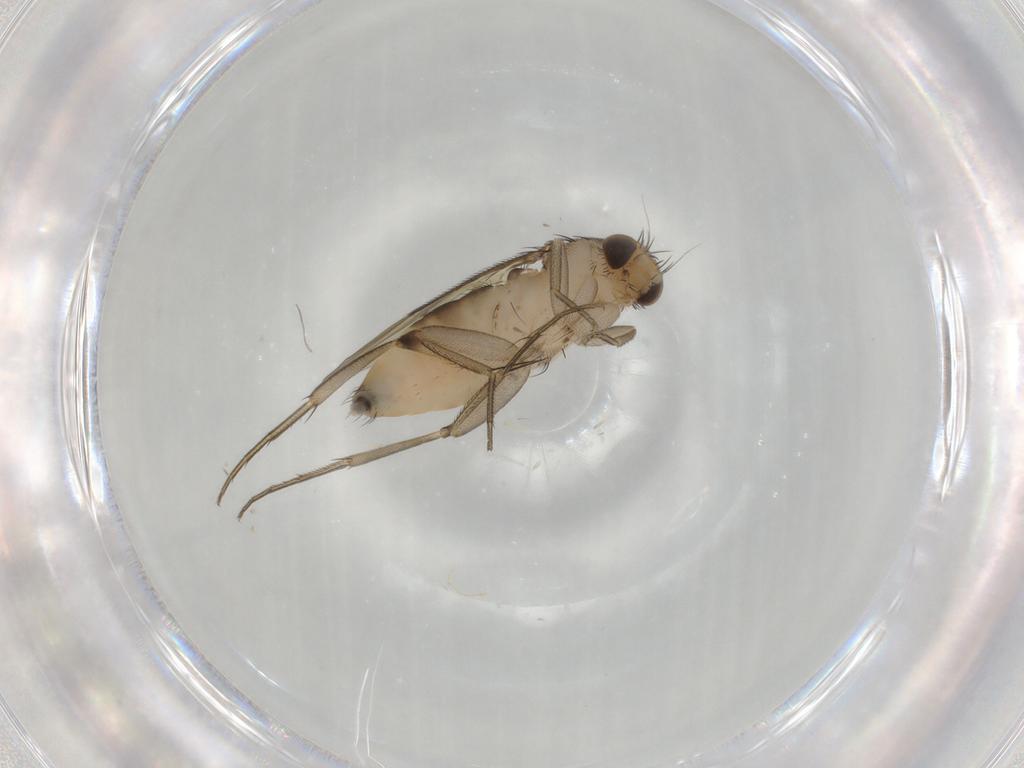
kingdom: Animalia
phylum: Arthropoda
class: Insecta
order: Diptera
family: Phoridae
